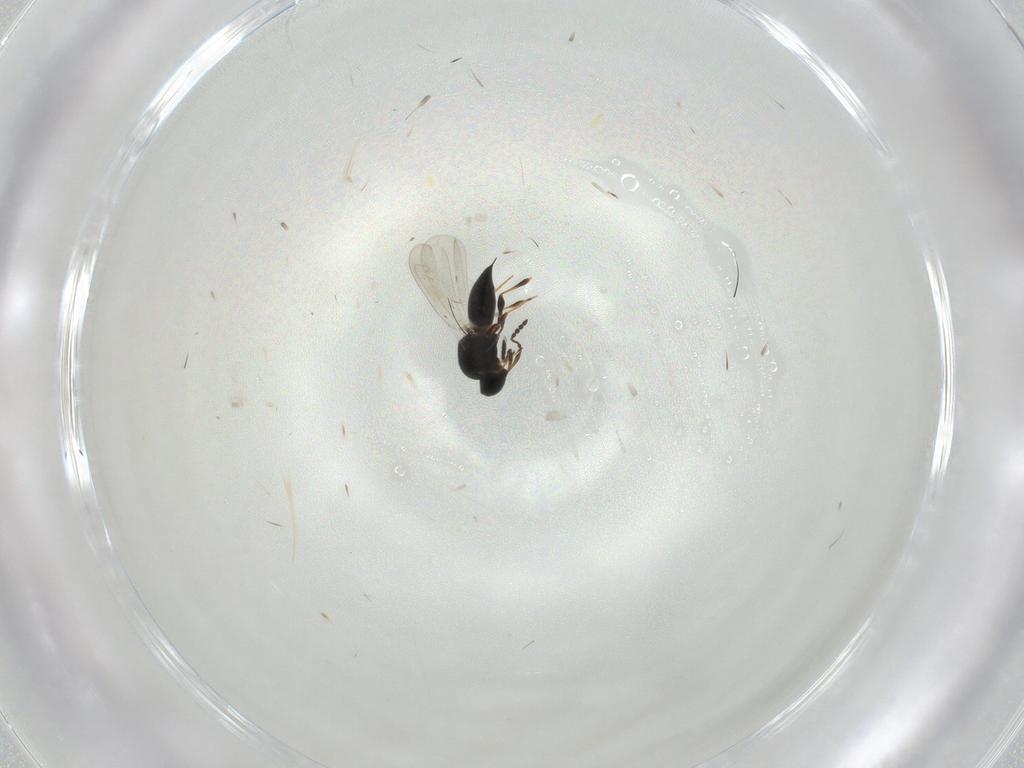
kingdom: Animalia
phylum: Arthropoda
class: Insecta
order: Hymenoptera
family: Platygastridae
